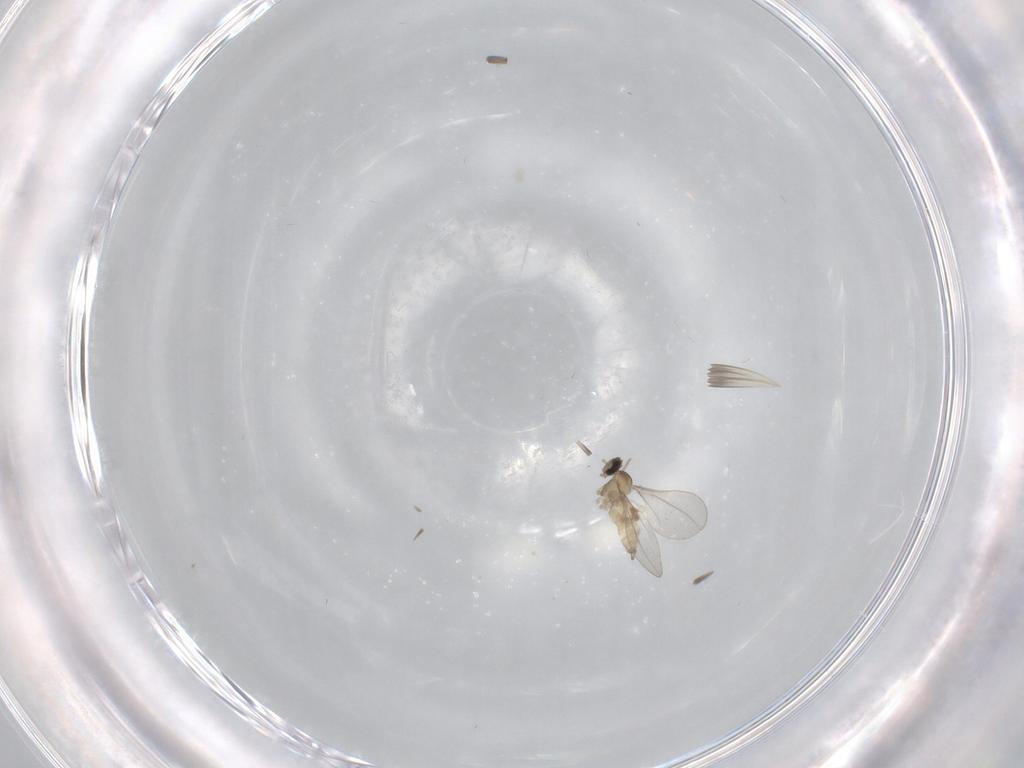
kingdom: Animalia
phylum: Arthropoda
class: Insecta
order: Diptera
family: Cecidomyiidae
